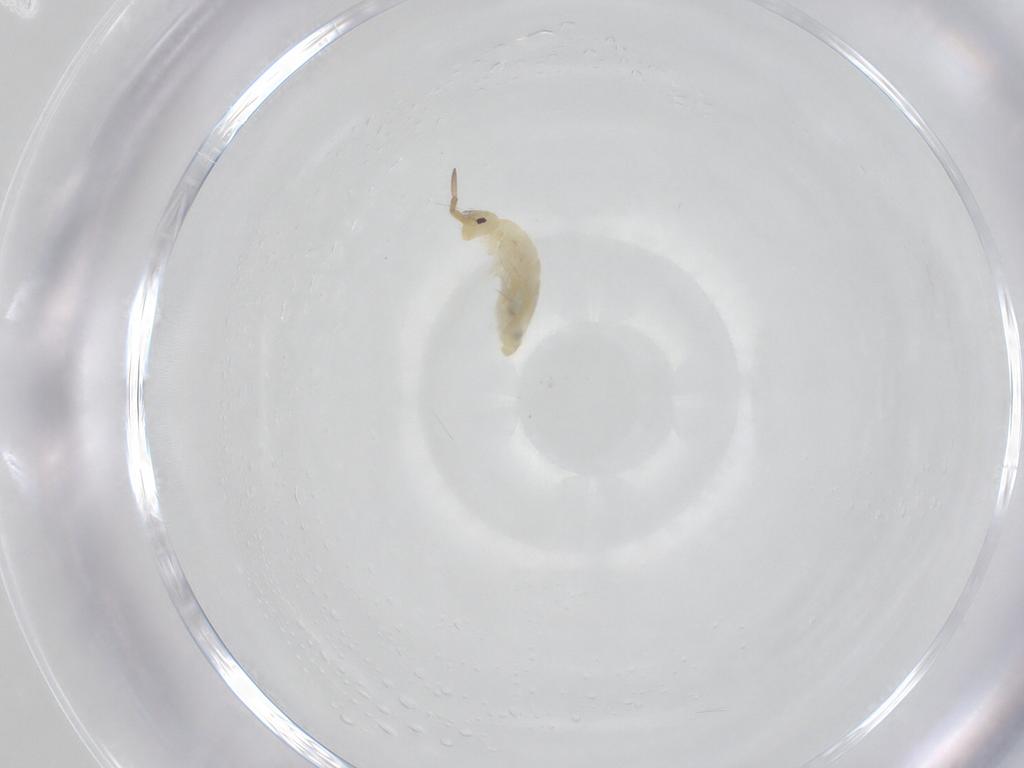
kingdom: Animalia
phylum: Arthropoda
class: Collembola
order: Entomobryomorpha
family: Entomobryidae
